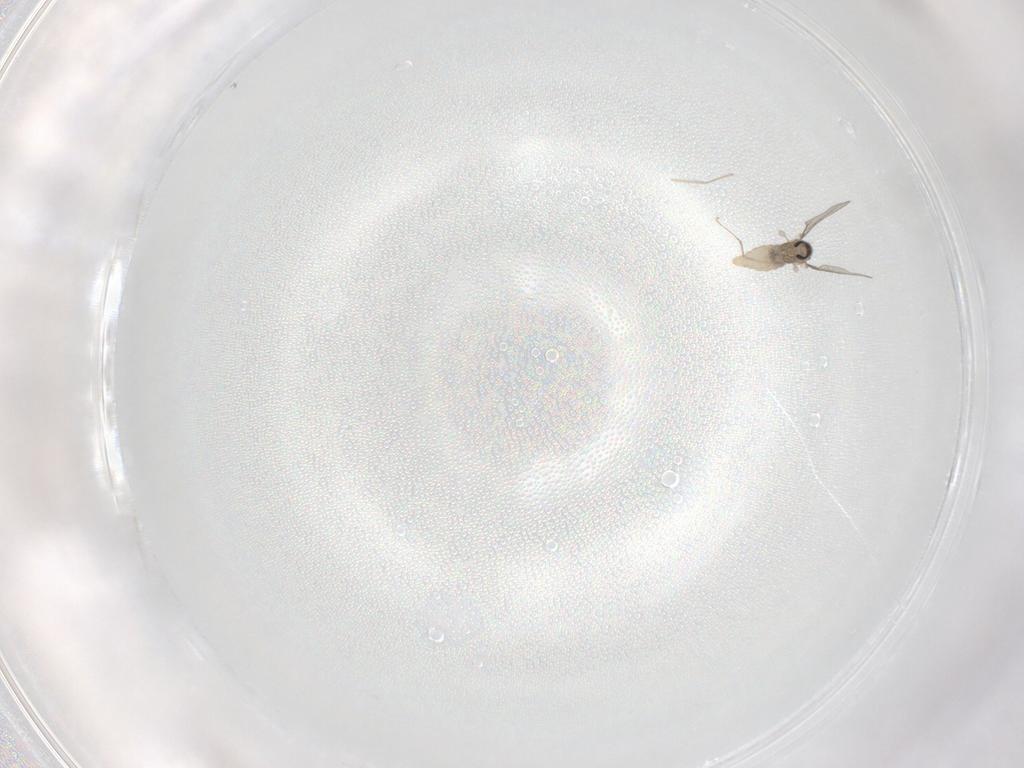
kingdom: Animalia
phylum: Arthropoda
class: Insecta
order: Diptera
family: Cecidomyiidae
